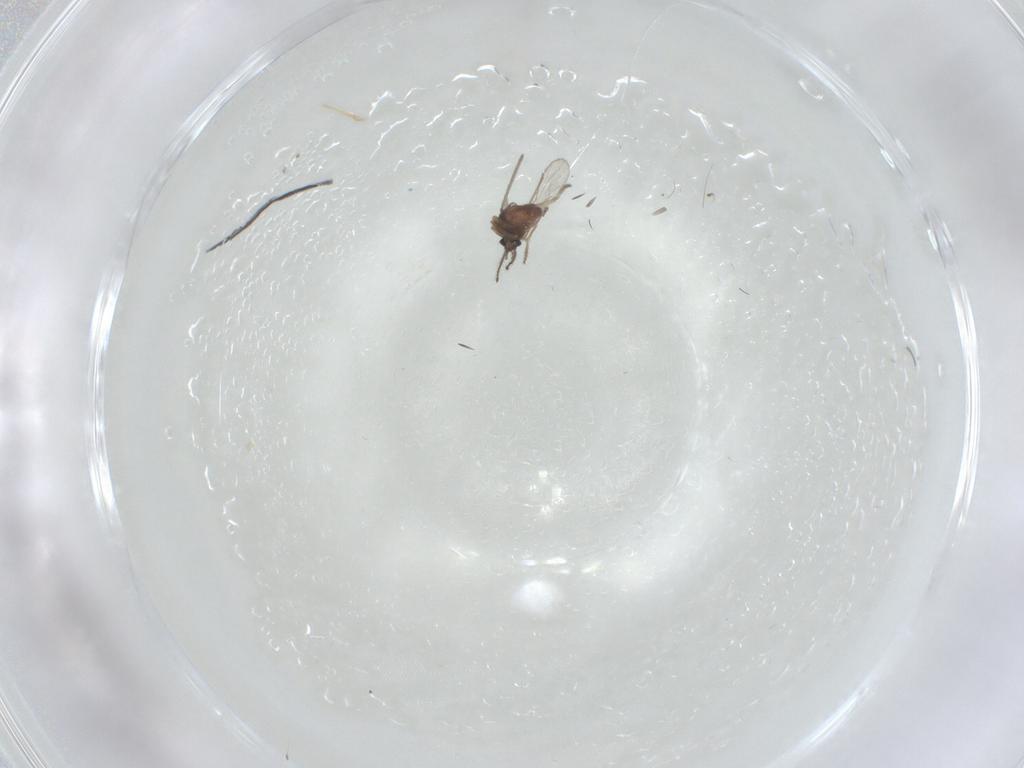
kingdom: Animalia
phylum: Arthropoda
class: Insecta
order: Diptera
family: Ceratopogonidae
